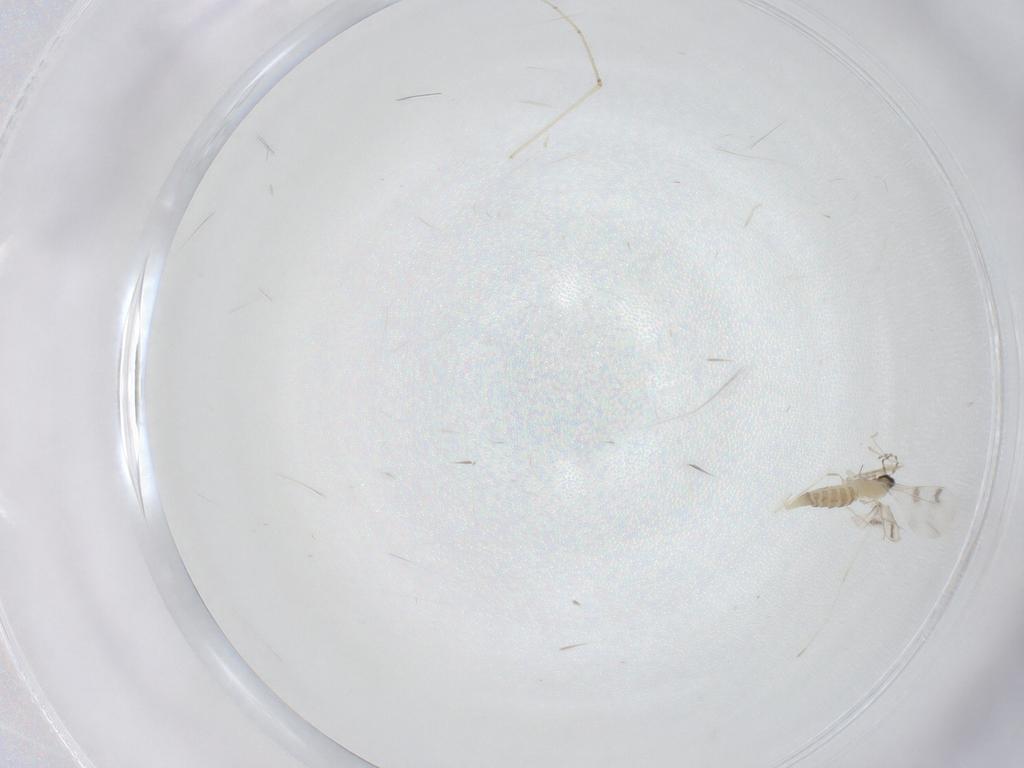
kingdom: Animalia
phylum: Arthropoda
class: Insecta
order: Diptera
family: Cecidomyiidae
